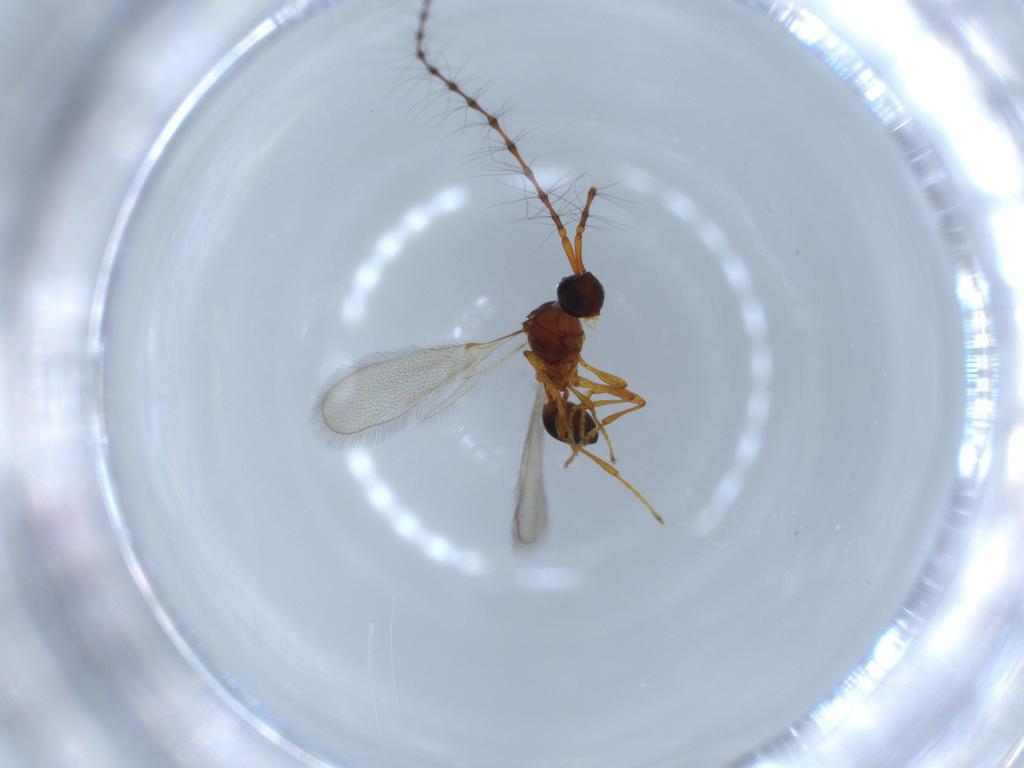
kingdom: Animalia
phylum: Arthropoda
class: Insecta
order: Hymenoptera
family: Diapriidae
